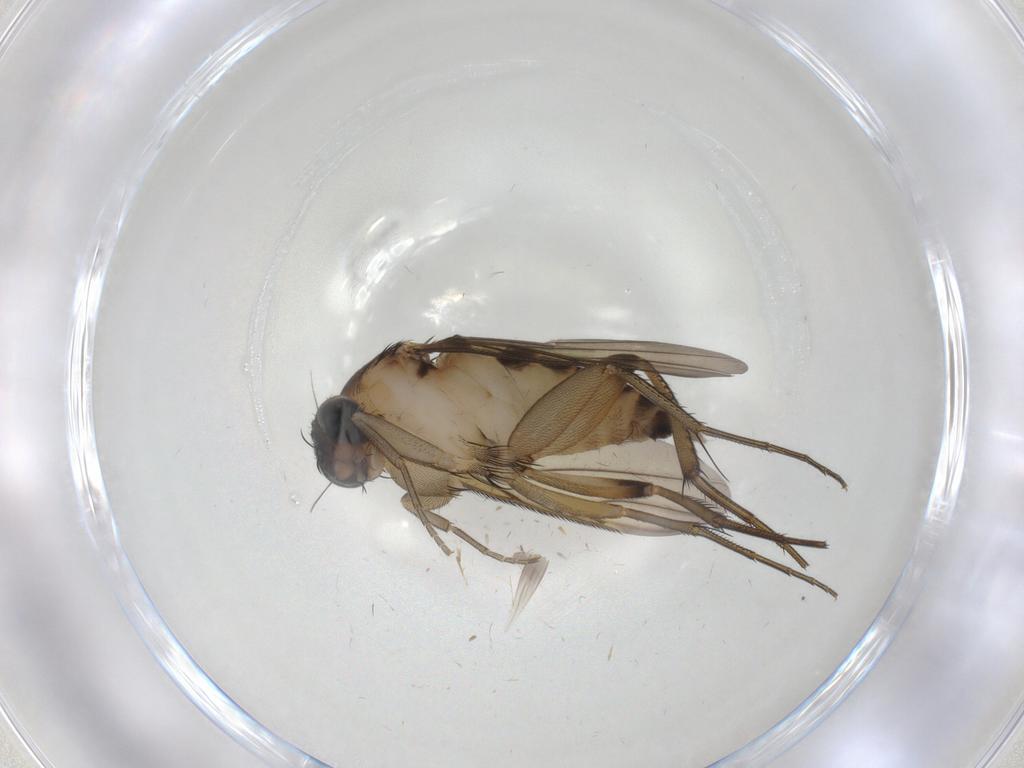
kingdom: Animalia
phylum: Arthropoda
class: Insecta
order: Diptera
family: Phoridae
